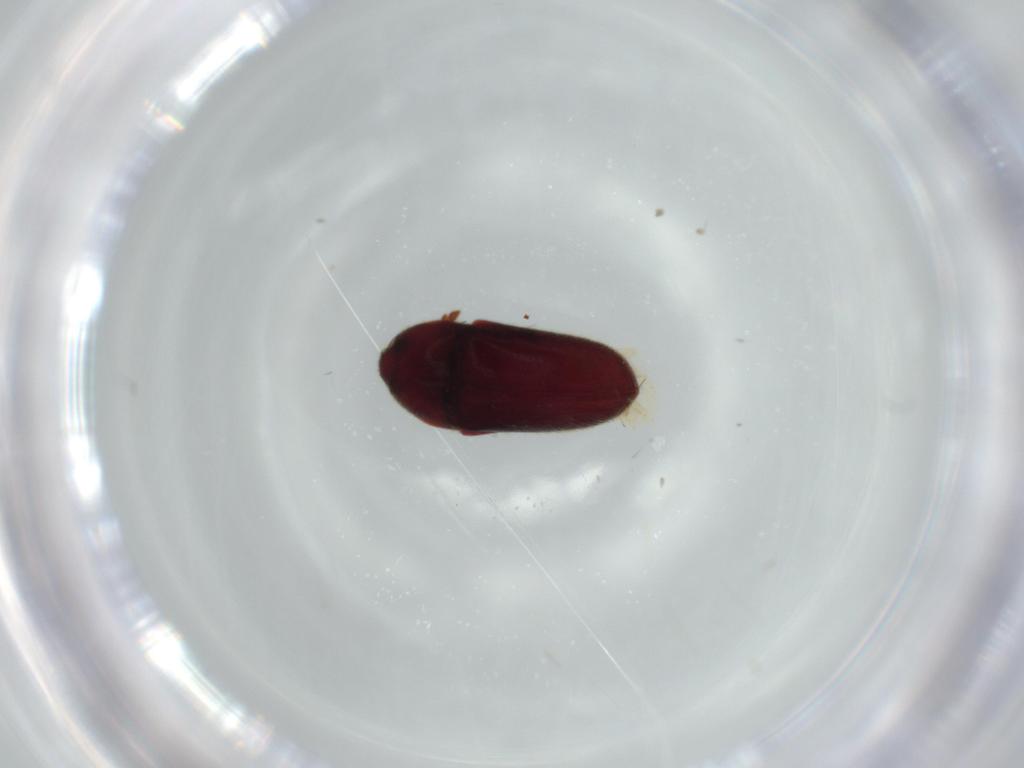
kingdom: Animalia
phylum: Arthropoda
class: Insecta
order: Coleoptera
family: Throscidae
